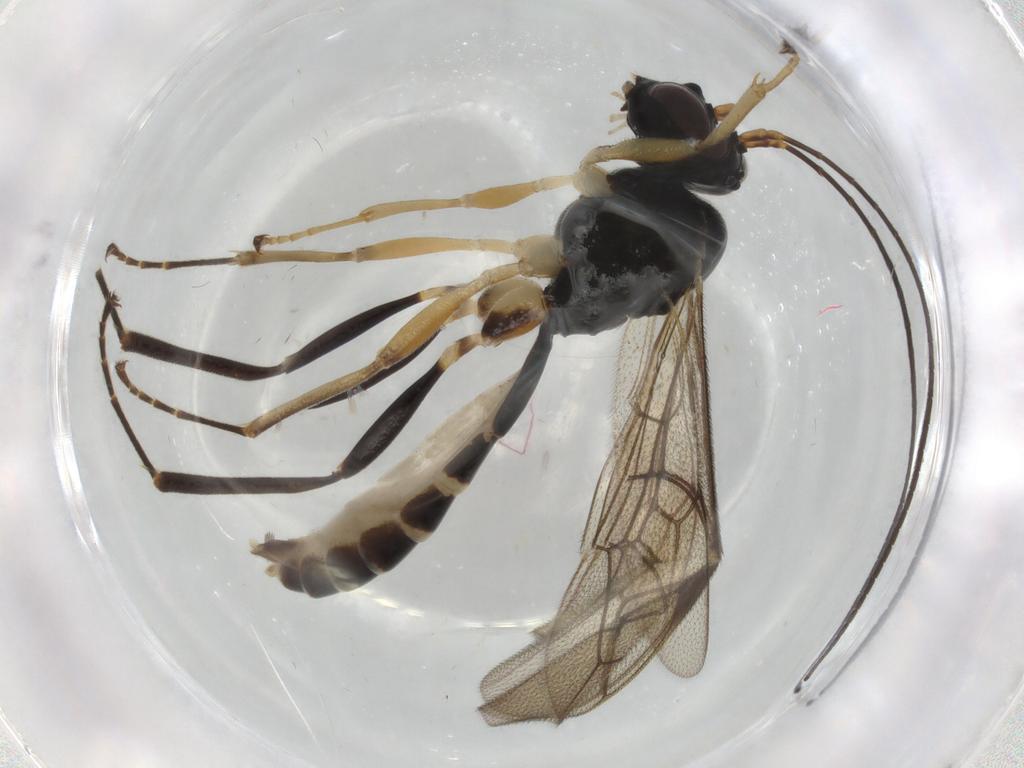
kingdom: Animalia
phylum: Arthropoda
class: Insecta
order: Hymenoptera
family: Braconidae
